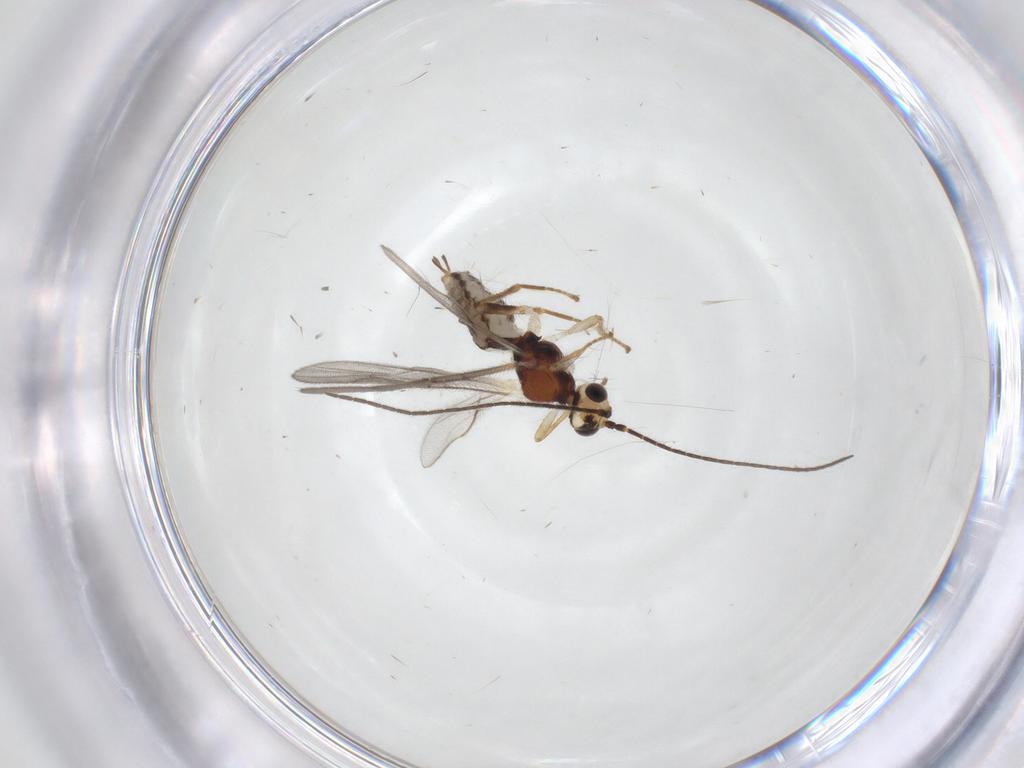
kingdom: Animalia
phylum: Arthropoda
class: Insecta
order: Hymenoptera
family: Braconidae
